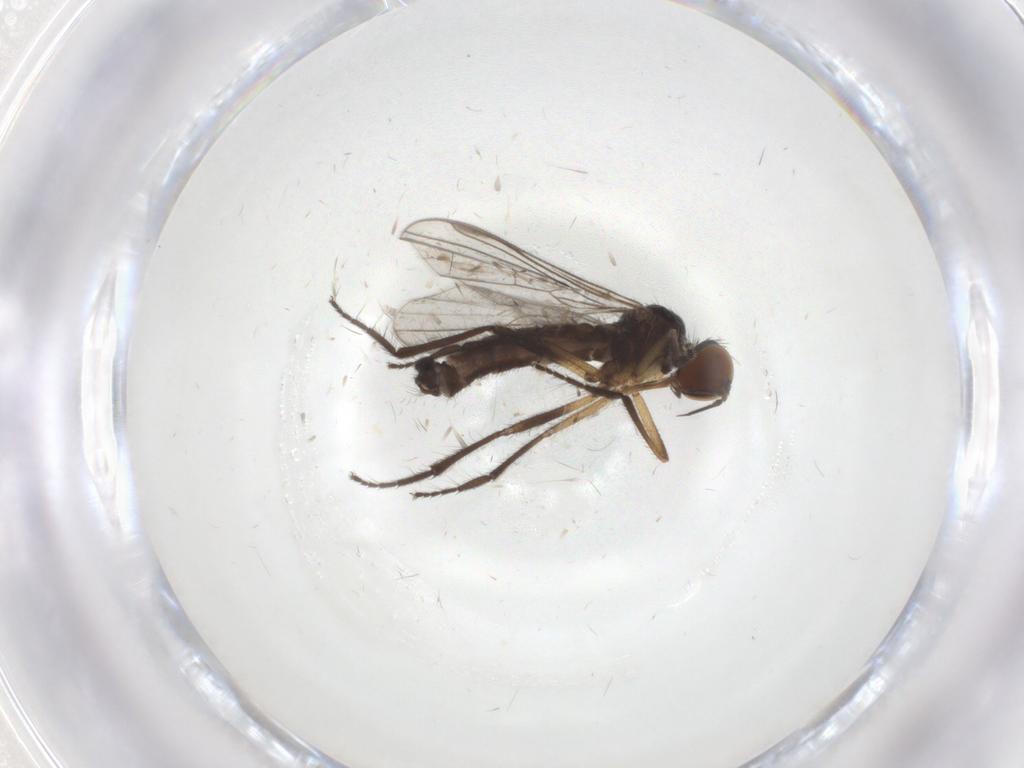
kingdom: Animalia
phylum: Arthropoda
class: Insecta
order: Diptera
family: Empididae
